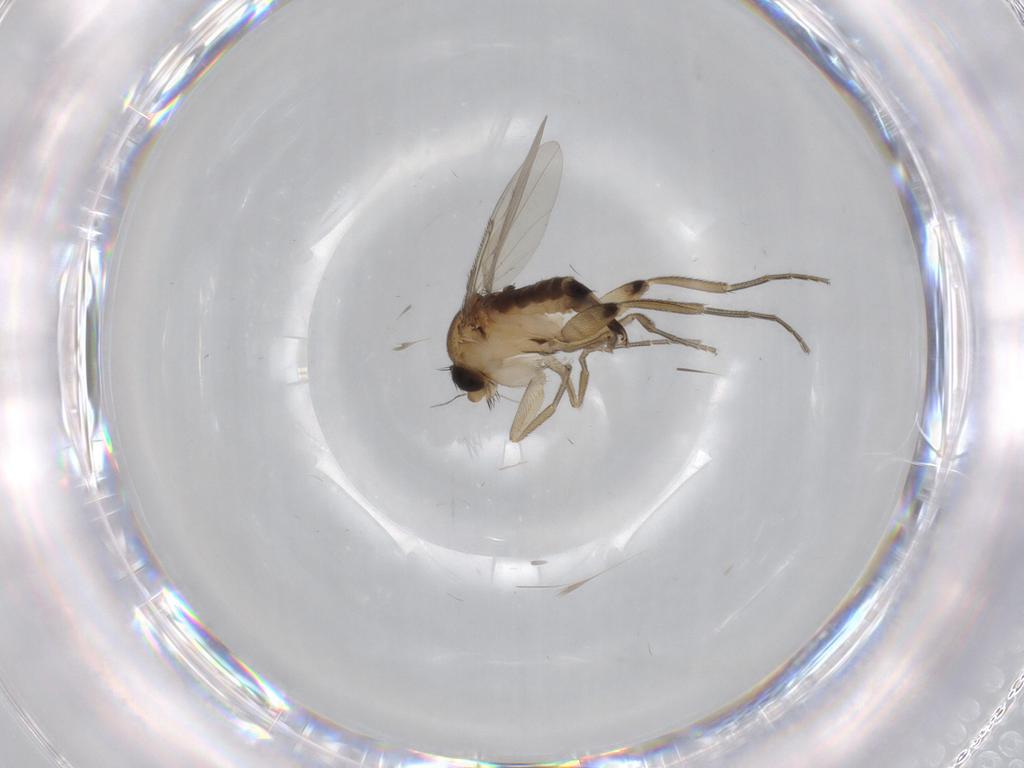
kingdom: Animalia
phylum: Arthropoda
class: Insecta
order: Diptera
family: Phoridae
